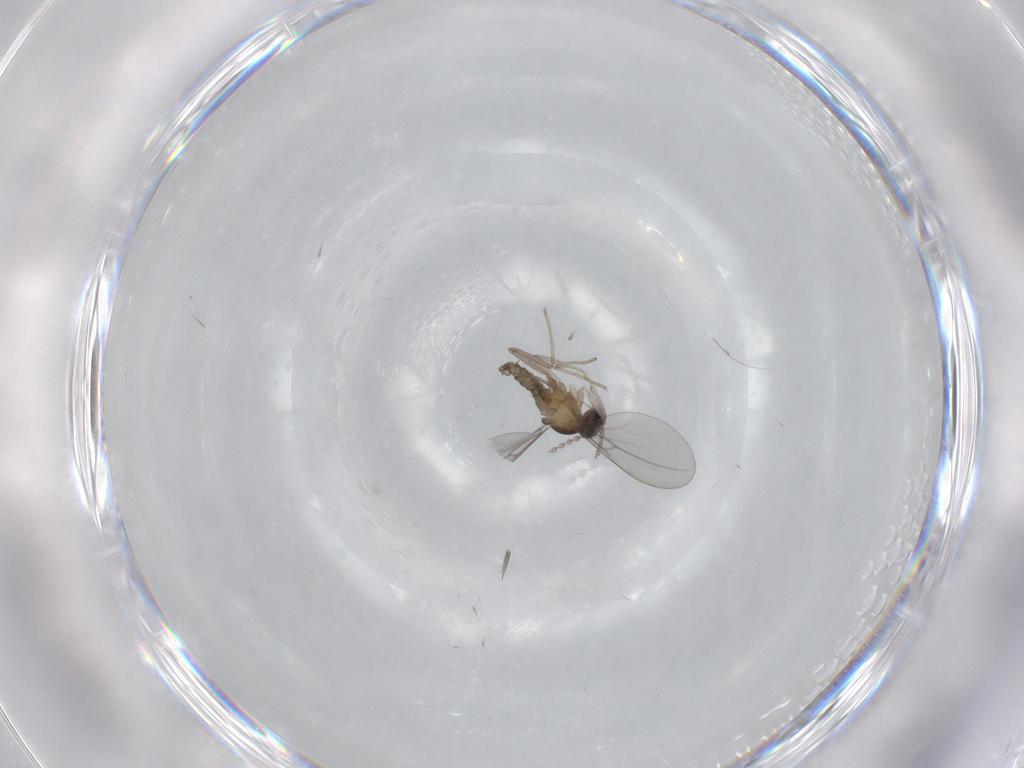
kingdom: Animalia
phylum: Arthropoda
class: Insecta
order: Diptera
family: Cecidomyiidae
